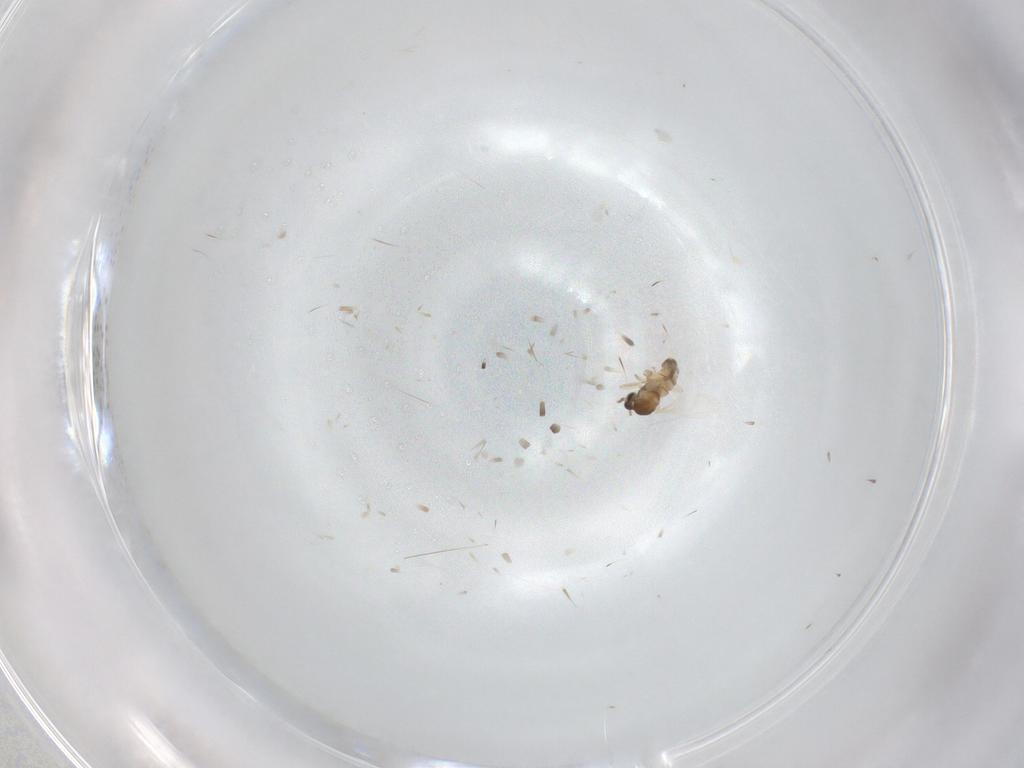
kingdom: Animalia
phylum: Arthropoda
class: Insecta
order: Diptera
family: Cecidomyiidae
